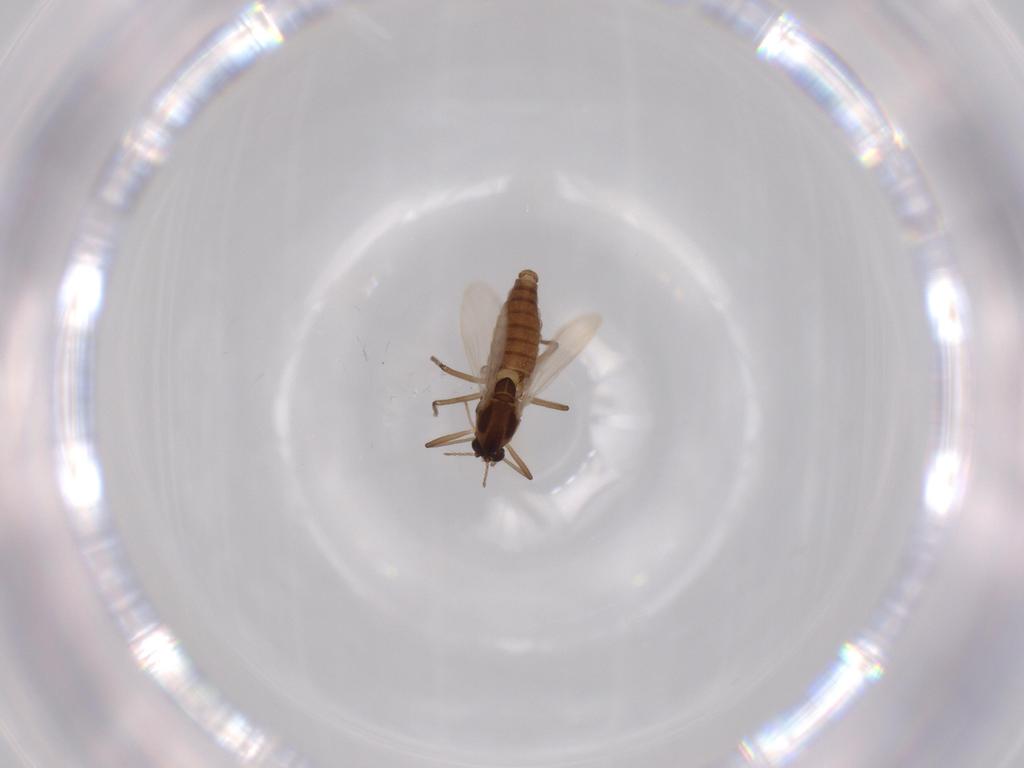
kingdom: Animalia
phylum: Arthropoda
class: Insecta
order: Diptera
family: Chironomidae
